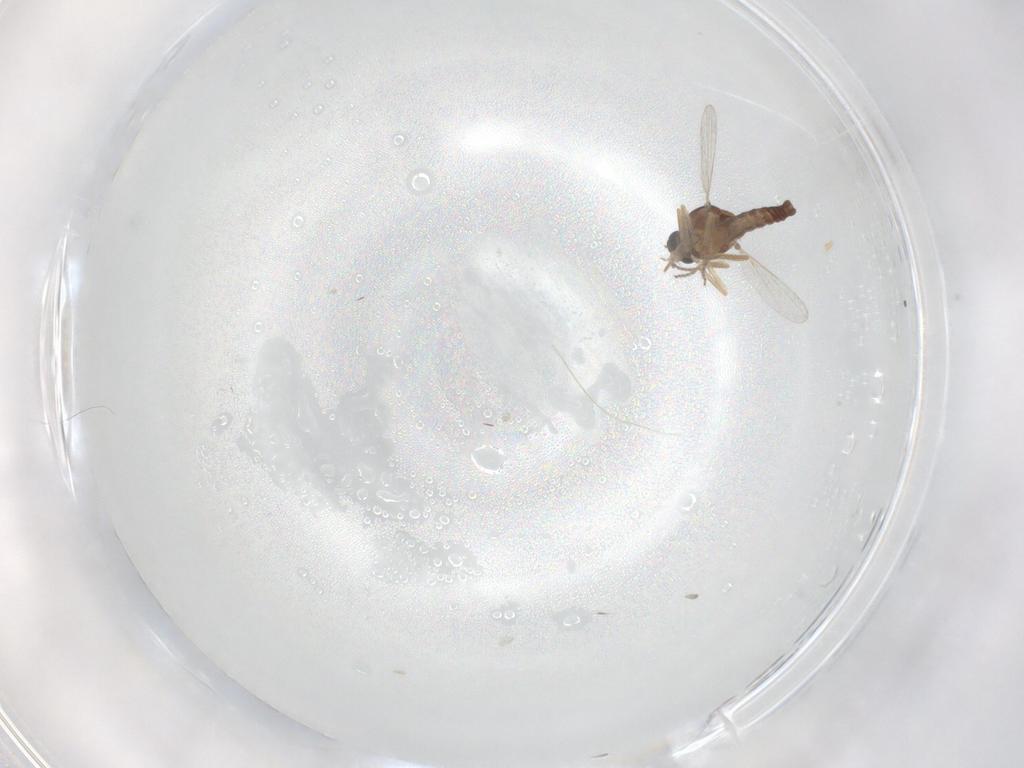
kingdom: Animalia
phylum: Arthropoda
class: Insecta
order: Diptera
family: Ceratopogonidae
